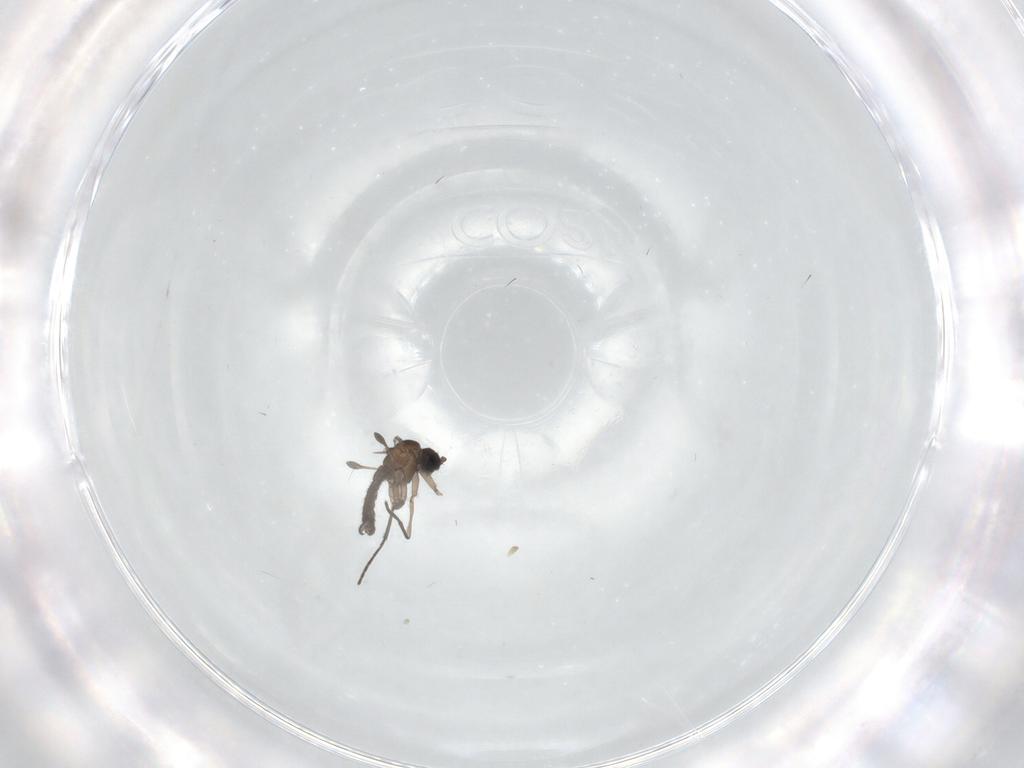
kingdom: Animalia
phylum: Arthropoda
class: Insecta
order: Diptera
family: Sciaridae
